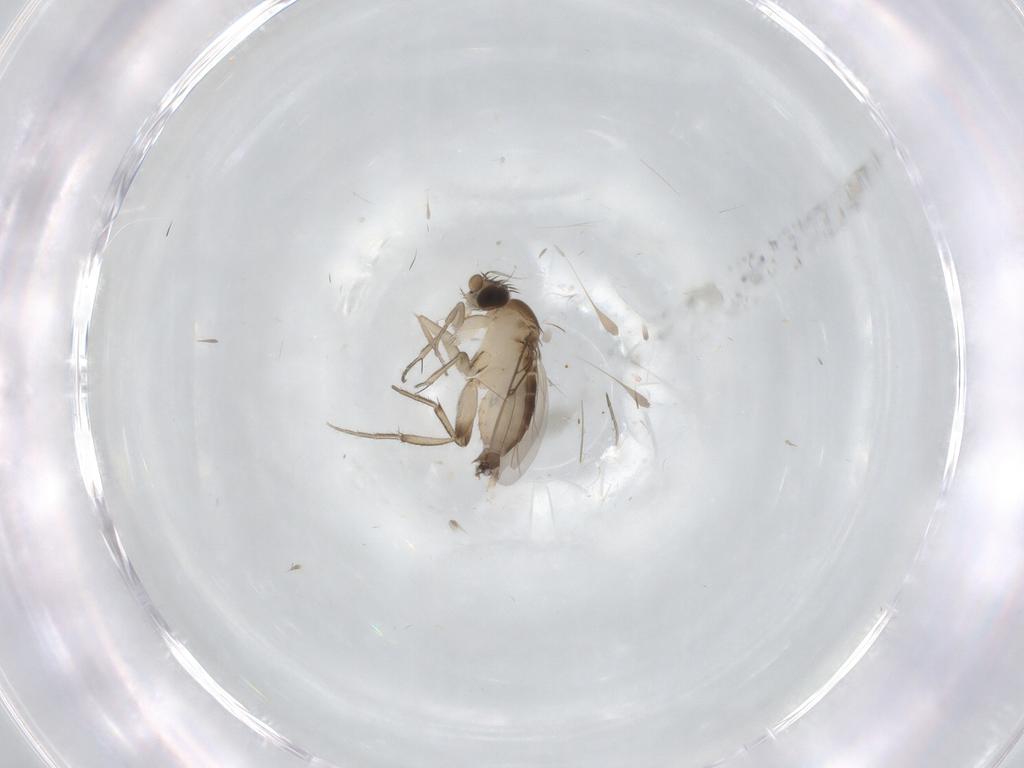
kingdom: Animalia
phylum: Arthropoda
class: Insecta
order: Diptera
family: Phoridae
